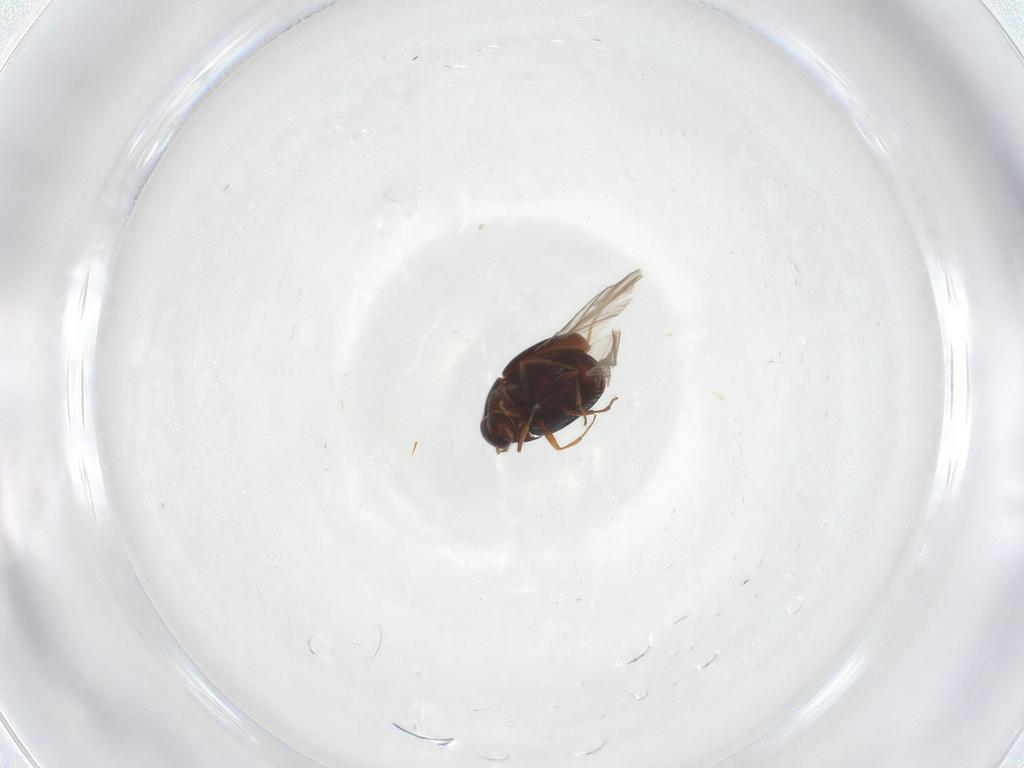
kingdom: Animalia
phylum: Arthropoda
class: Insecta
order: Coleoptera
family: Staphylinidae
